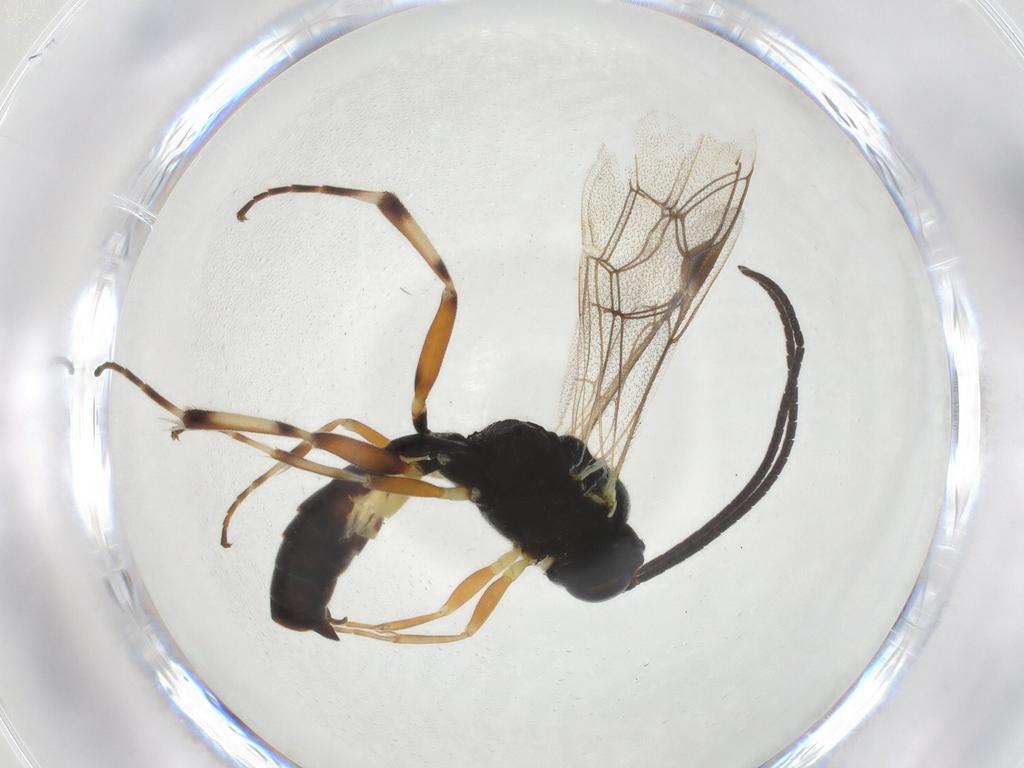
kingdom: Animalia
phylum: Arthropoda
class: Insecta
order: Hymenoptera
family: Ichneumonidae
